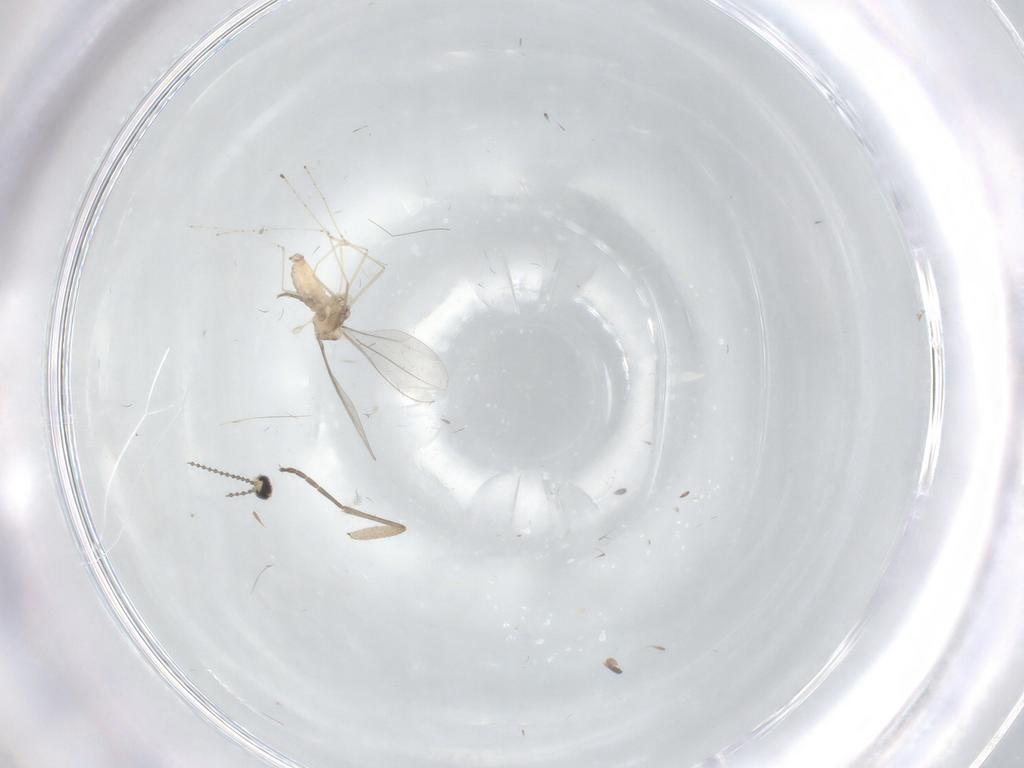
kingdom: Animalia
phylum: Arthropoda
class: Insecta
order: Diptera
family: Phoridae
